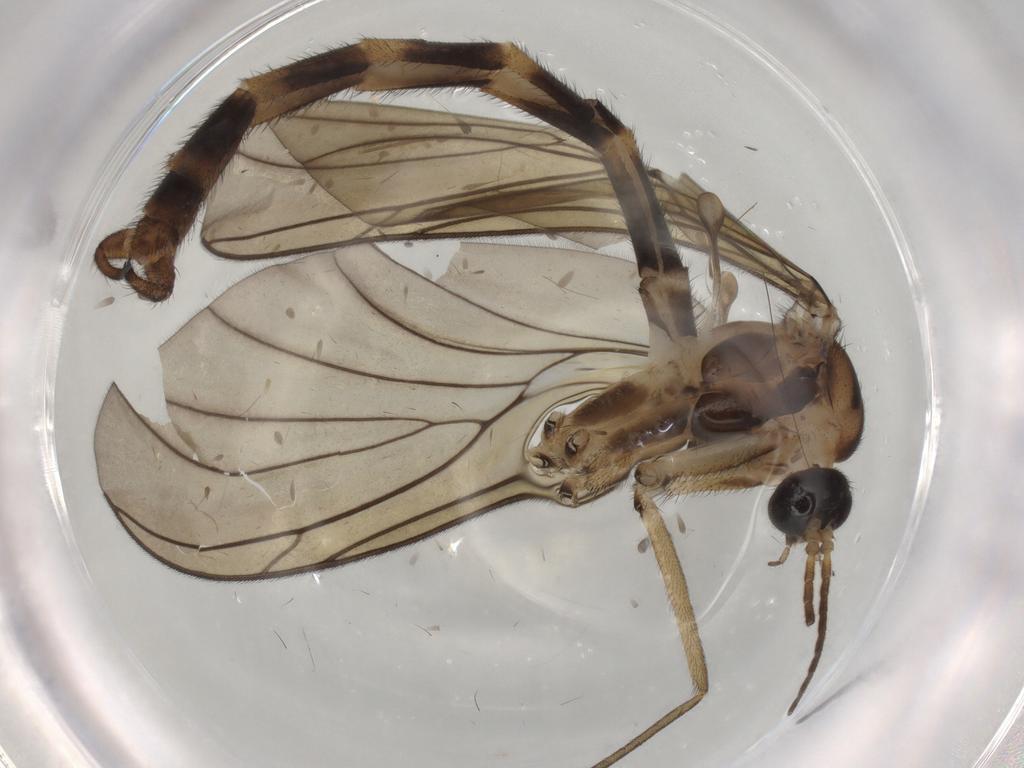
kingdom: Animalia
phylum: Arthropoda
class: Insecta
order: Diptera
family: Keroplatidae
